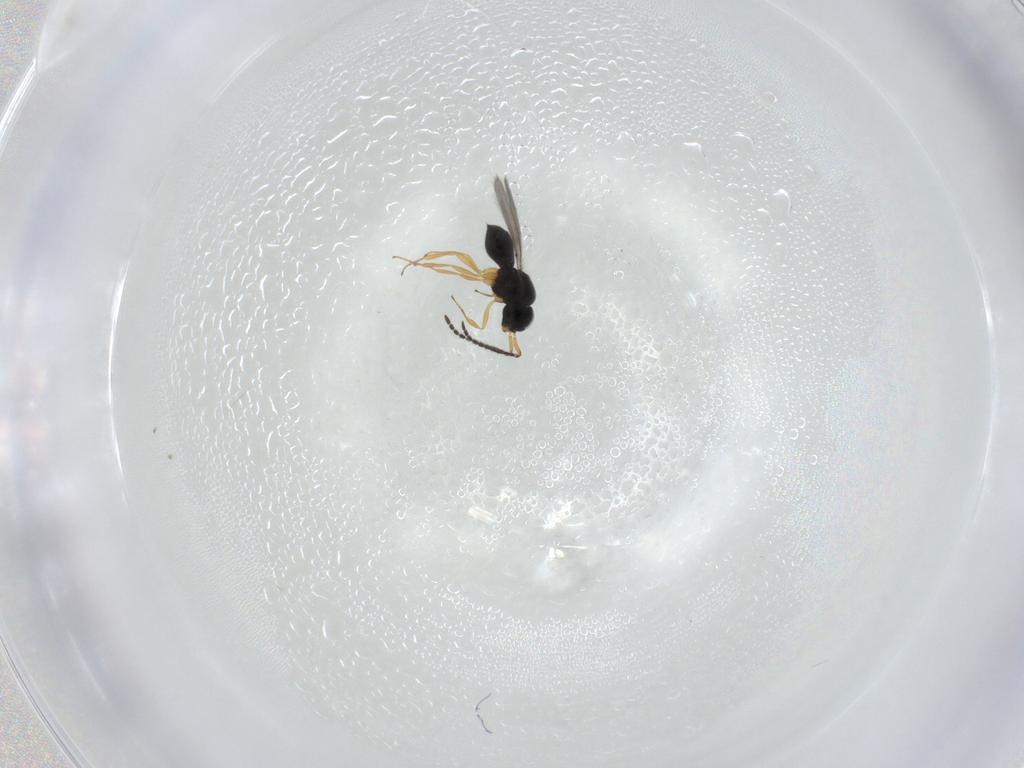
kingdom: Animalia
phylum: Arthropoda
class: Insecta
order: Hymenoptera
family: Scelionidae
